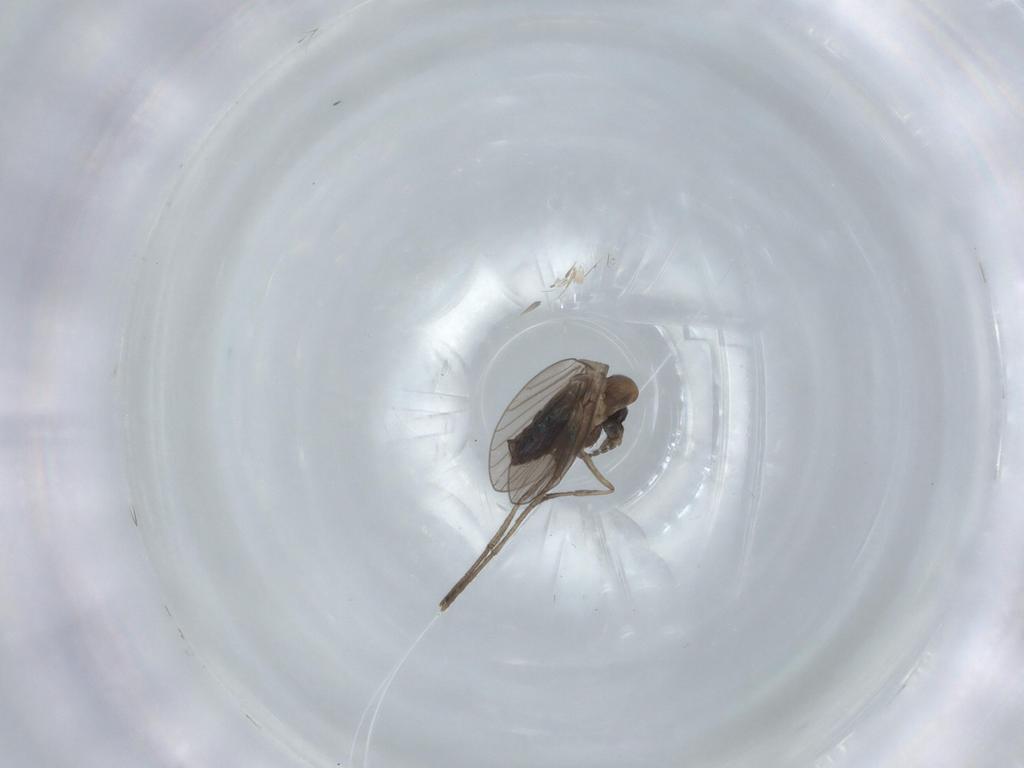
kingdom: Animalia
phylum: Arthropoda
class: Insecta
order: Diptera
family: Psychodidae
